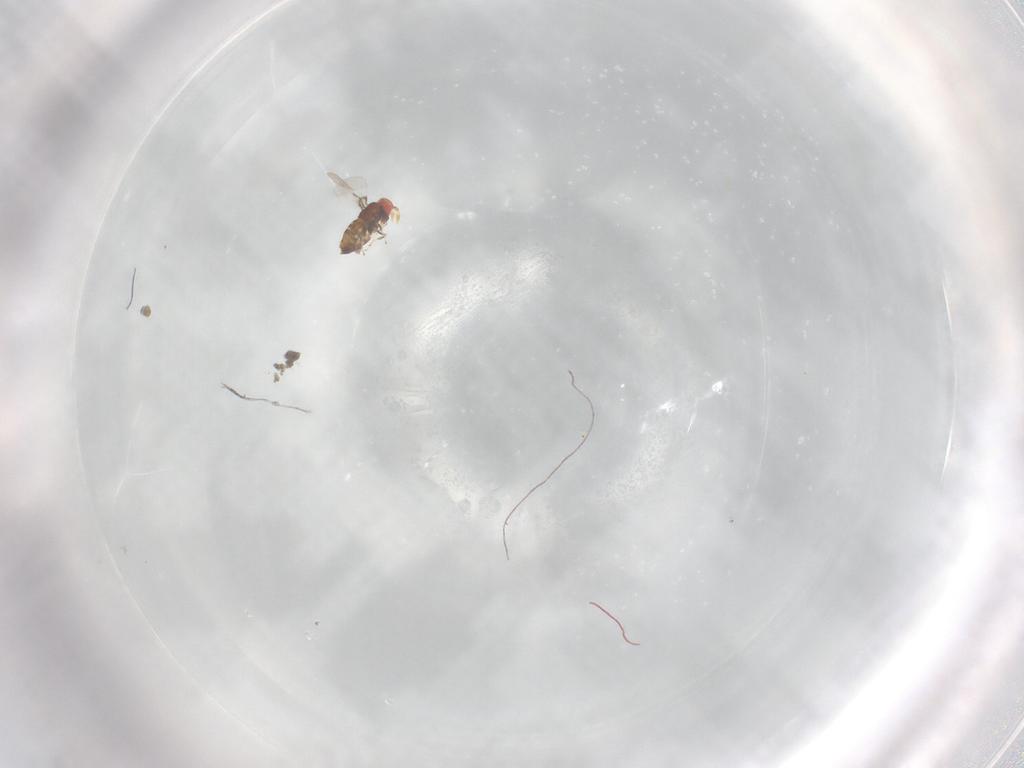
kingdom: Animalia
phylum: Arthropoda
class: Insecta
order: Hymenoptera
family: Trichogrammatidae
